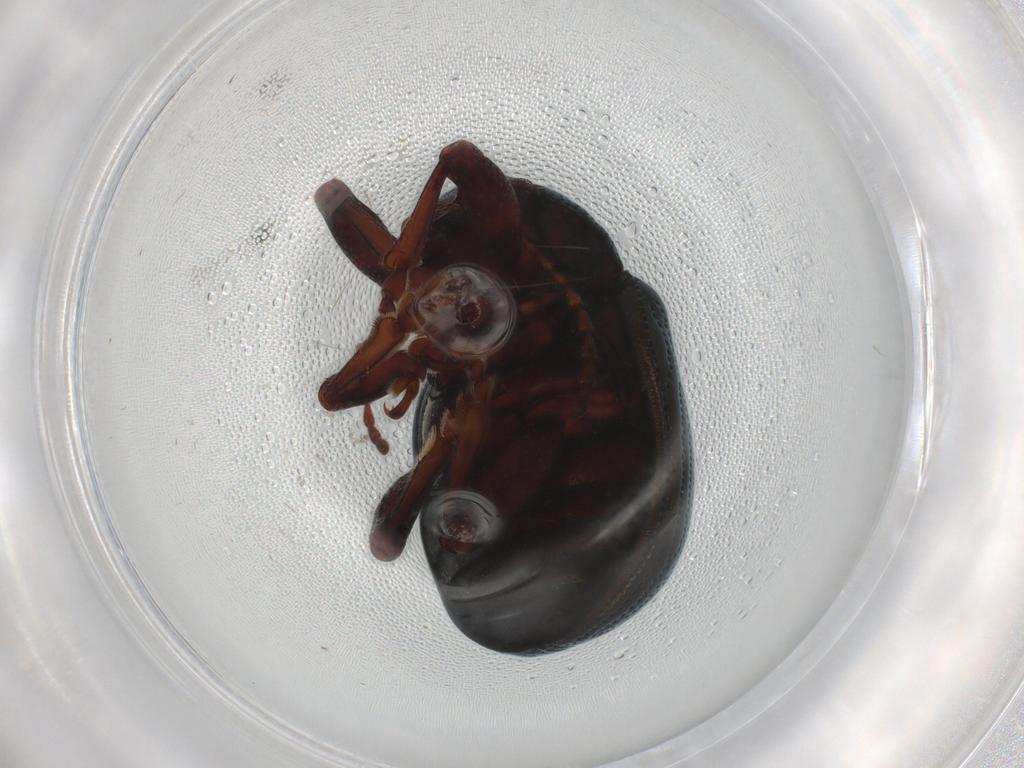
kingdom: Animalia
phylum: Arthropoda
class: Insecta
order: Coleoptera
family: Chrysomelidae
